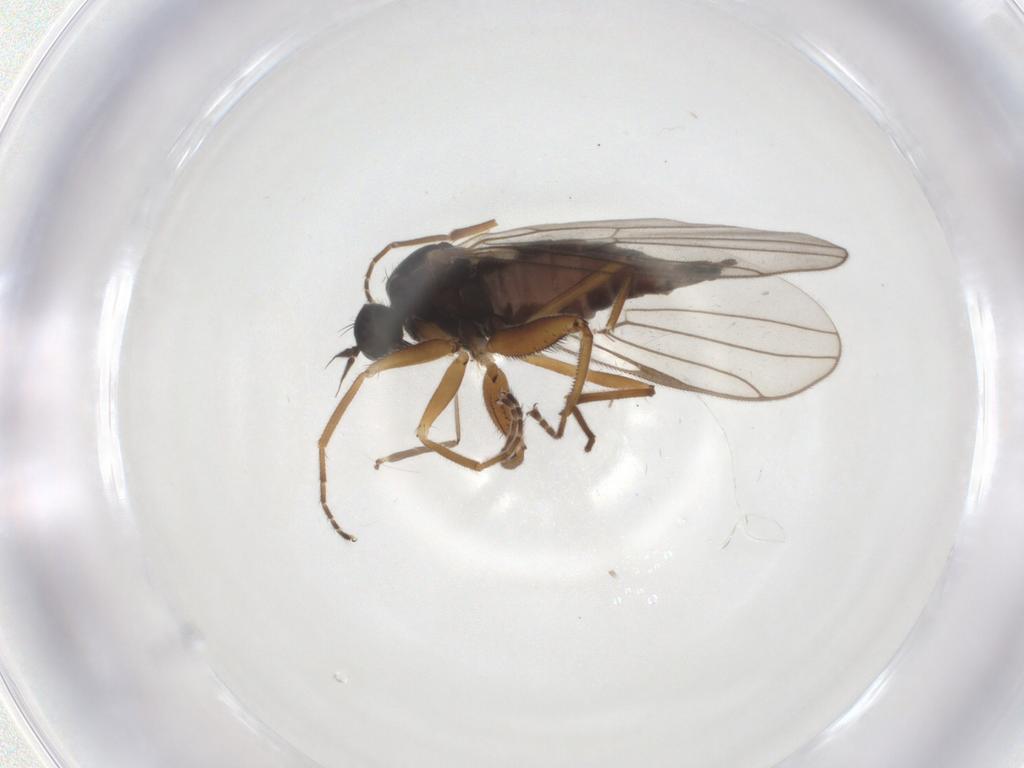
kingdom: Animalia
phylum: Arthropoda
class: Insecta
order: Diptera
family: Hybotidae
